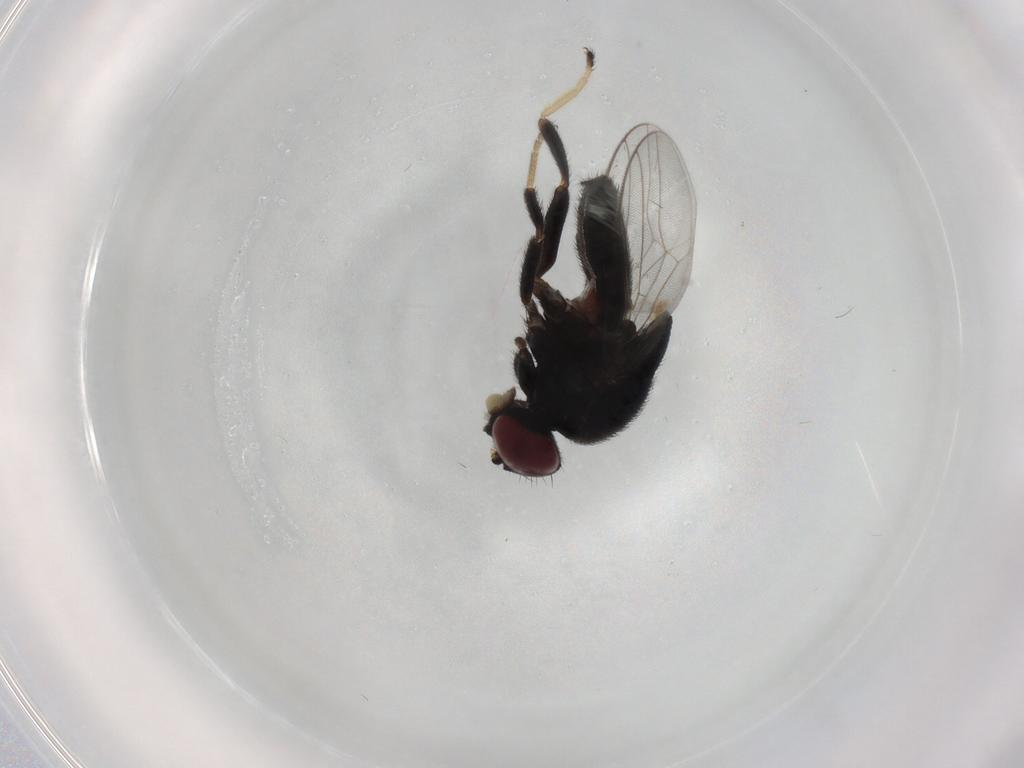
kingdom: Animalia
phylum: Arthropoda
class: Insecta
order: Diptera
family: Chloropidae
